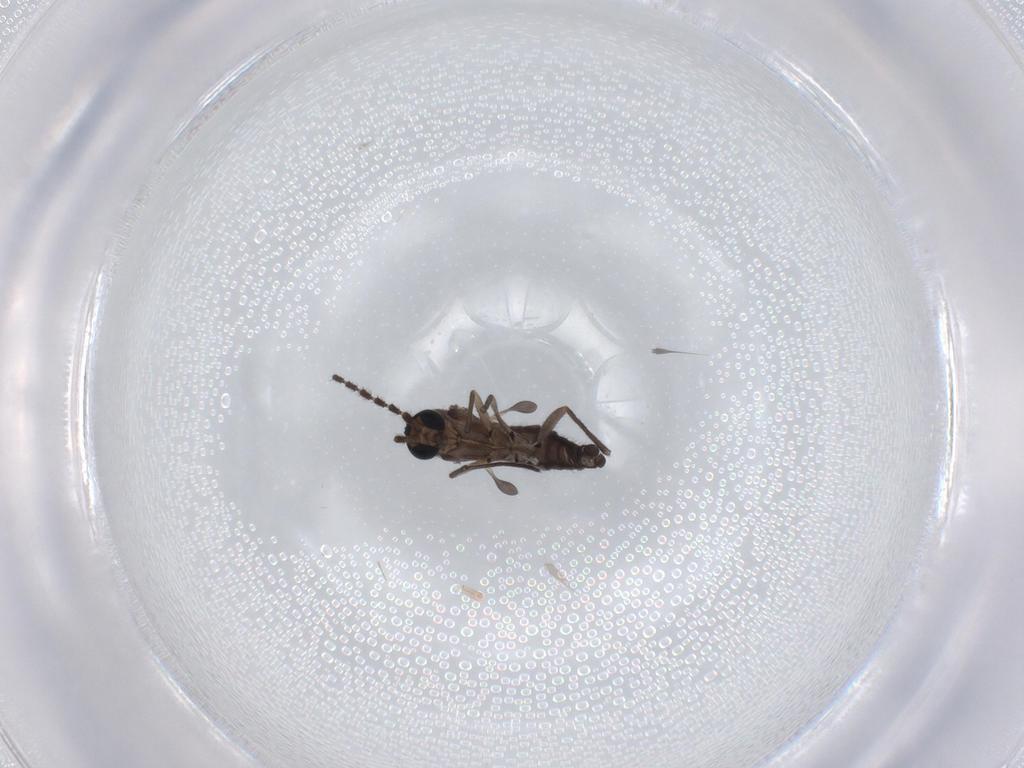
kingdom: Animalia
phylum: Arthropoda
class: Insecta
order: Diptera
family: Sciaridae
